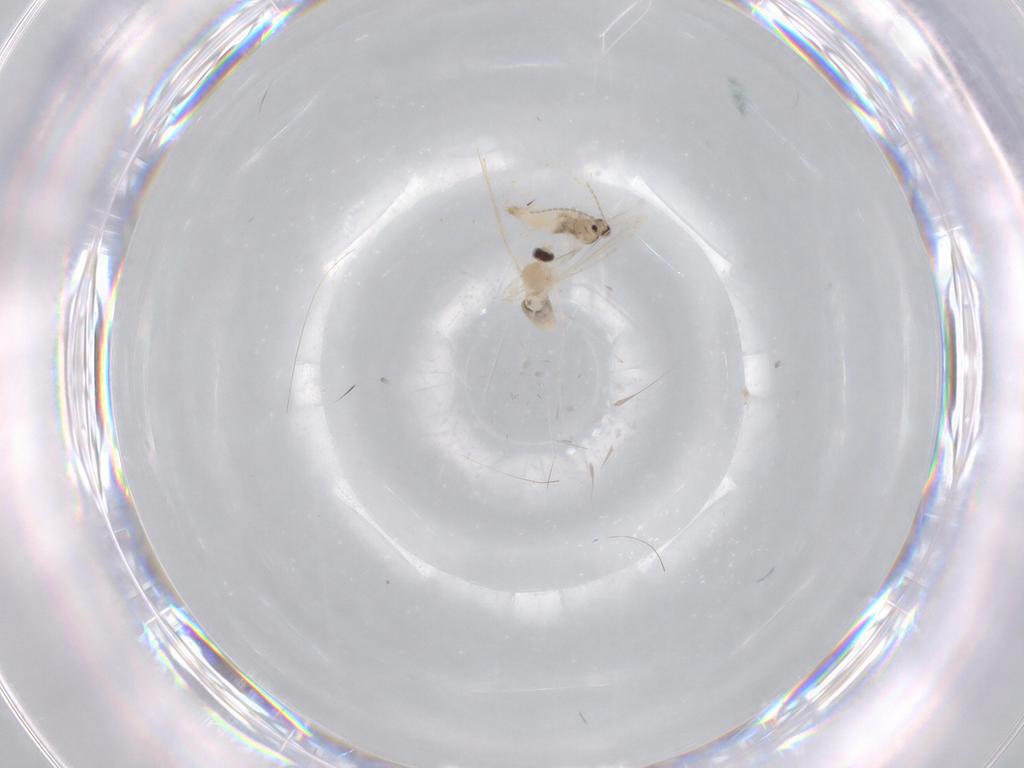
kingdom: Animalia
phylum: Arthropoda
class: Insecta
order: Diptera
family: Cecidomyiidae
